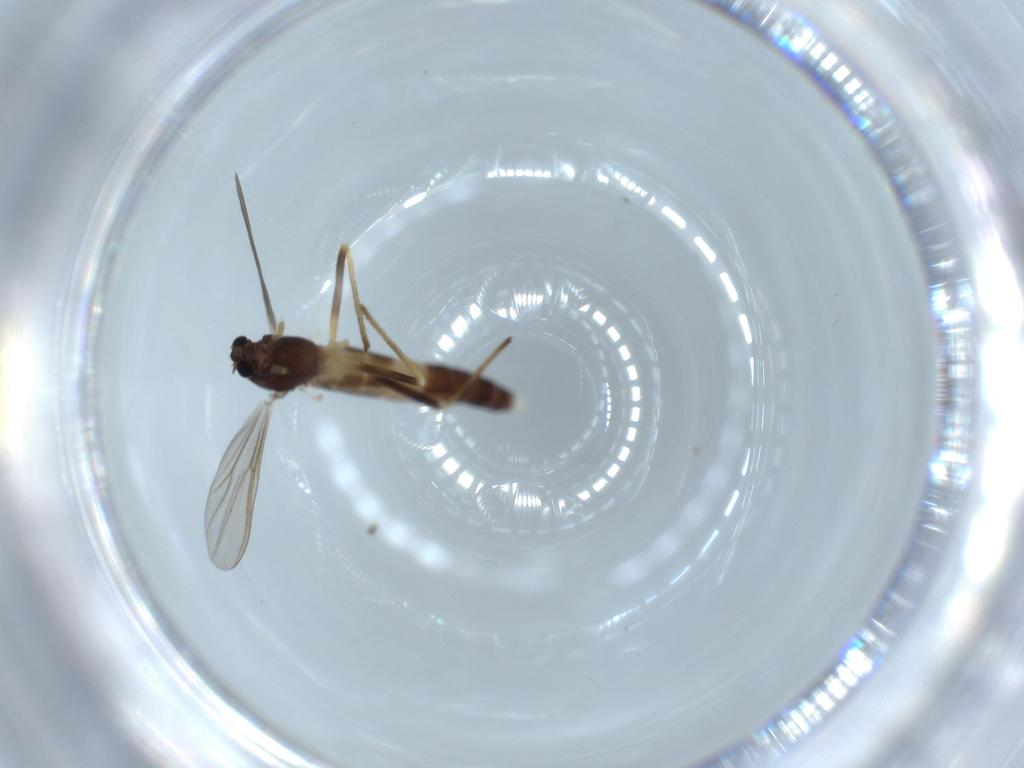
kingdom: Animalia
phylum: Arthropoda
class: Insecta
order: Diptera
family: Chironomidae
